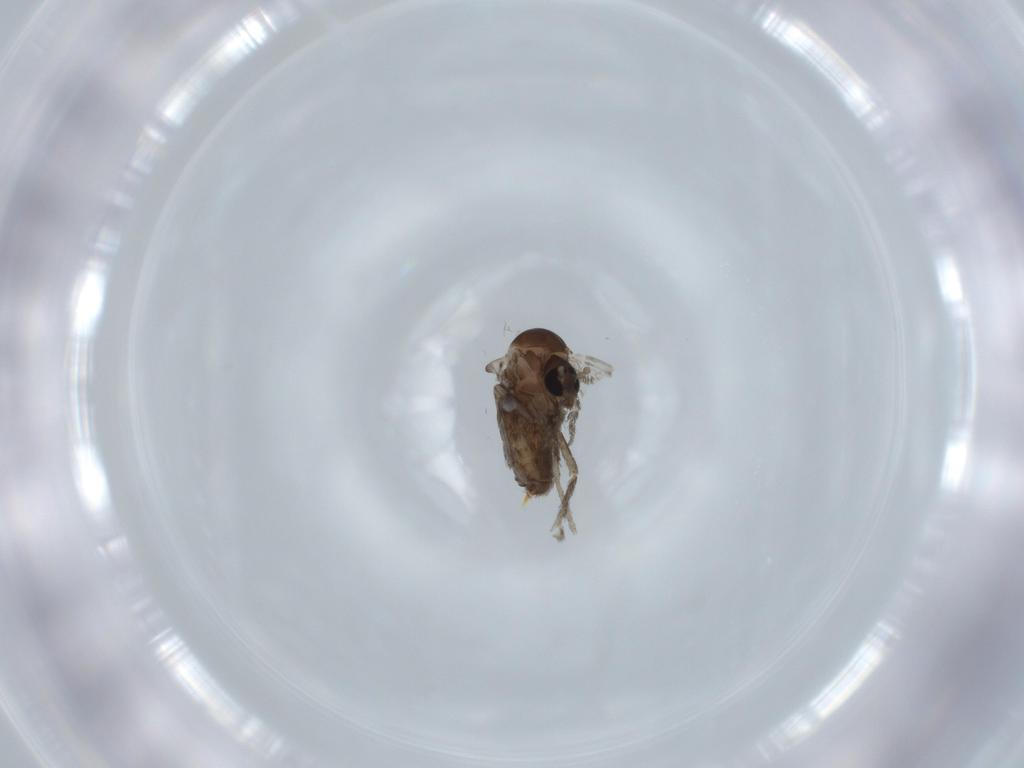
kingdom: Animalia
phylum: Arthropoda
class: Insecta
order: Diptera
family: Psychodidae
